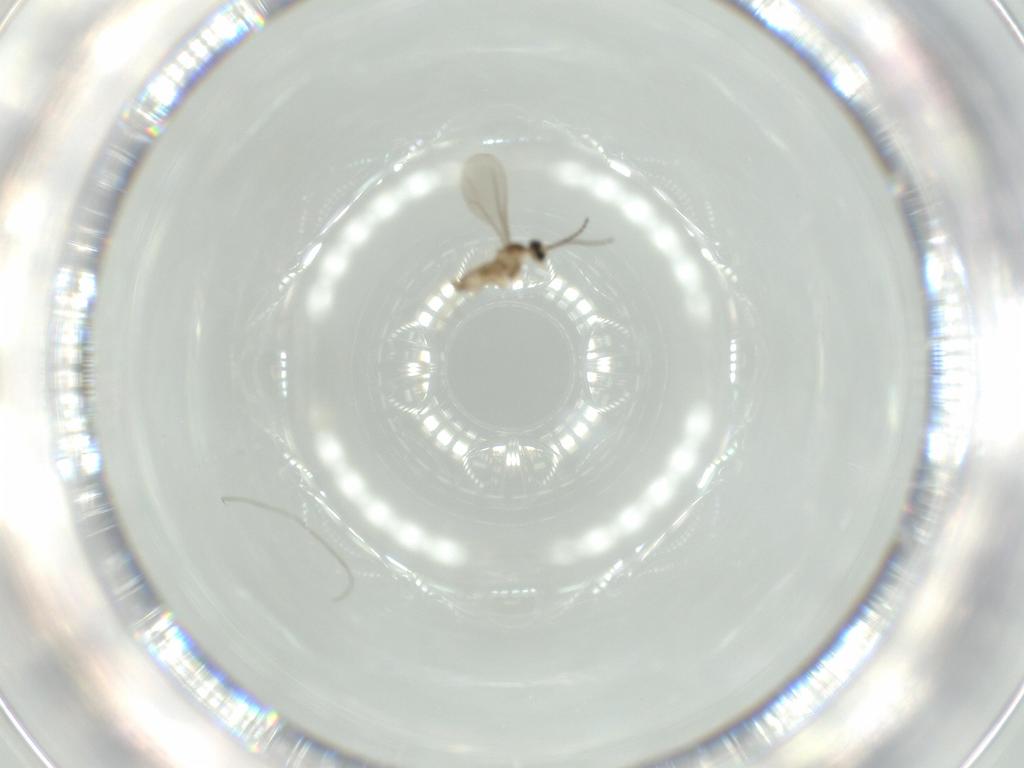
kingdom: Animalia
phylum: Arthropoda
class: Insecta
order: Diptera
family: Cecidomyiidae
